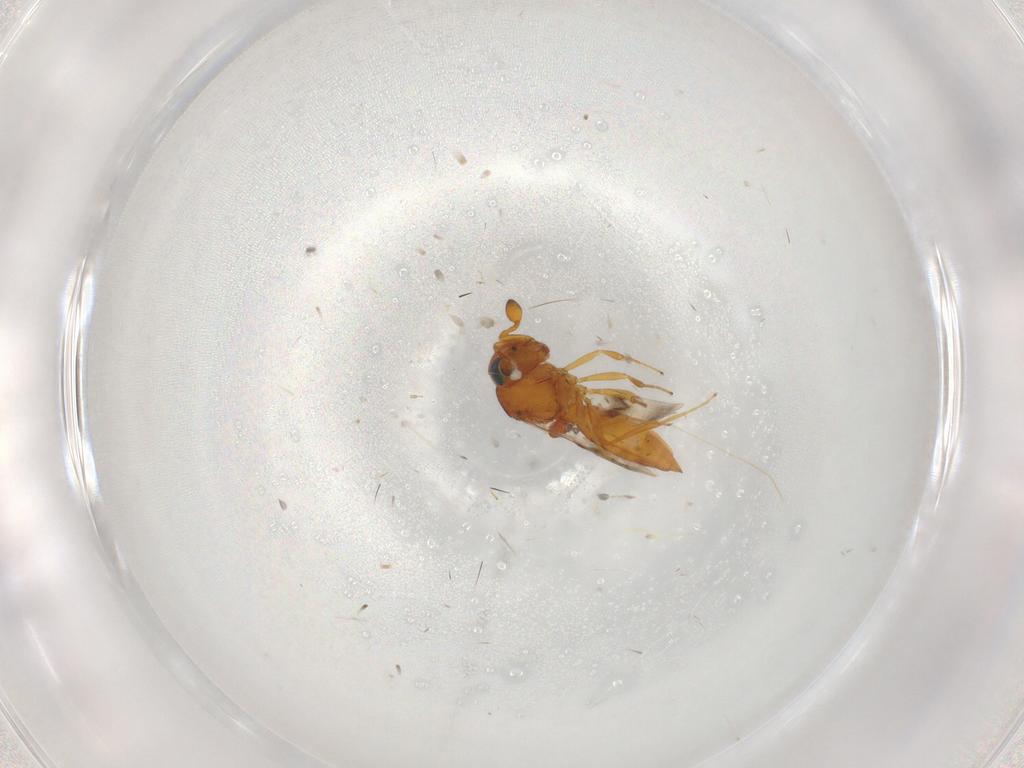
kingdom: Animalia
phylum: Arthropoda
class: Insecta
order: Hymenoptera
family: Scelionidae
